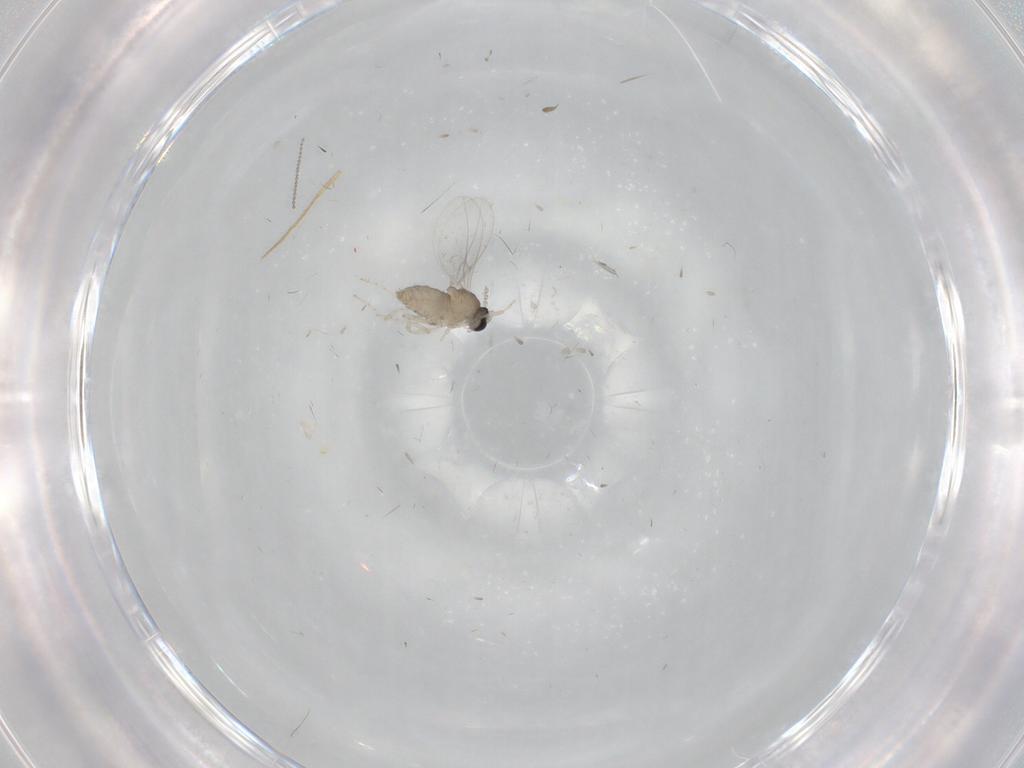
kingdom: Animalia
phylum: Arthropoda
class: Insecta
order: Diptera
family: Cecidomyiidae
